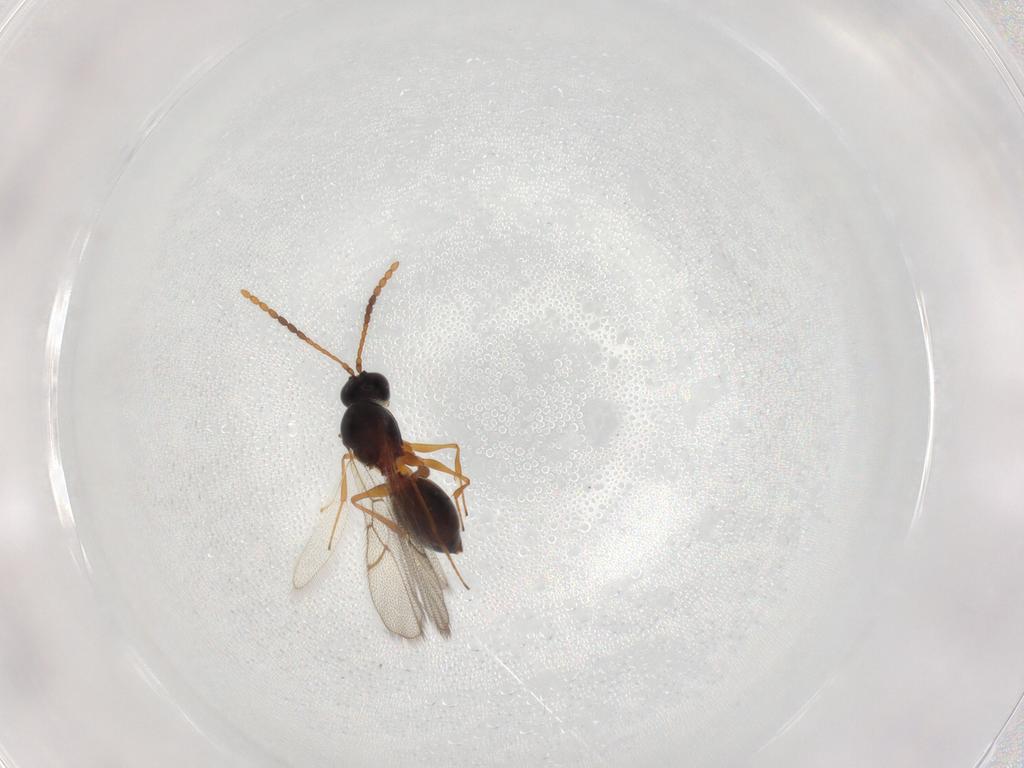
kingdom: Animalia
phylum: Arthropoda
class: Insecta
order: Hymenoptera
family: Figitidae
